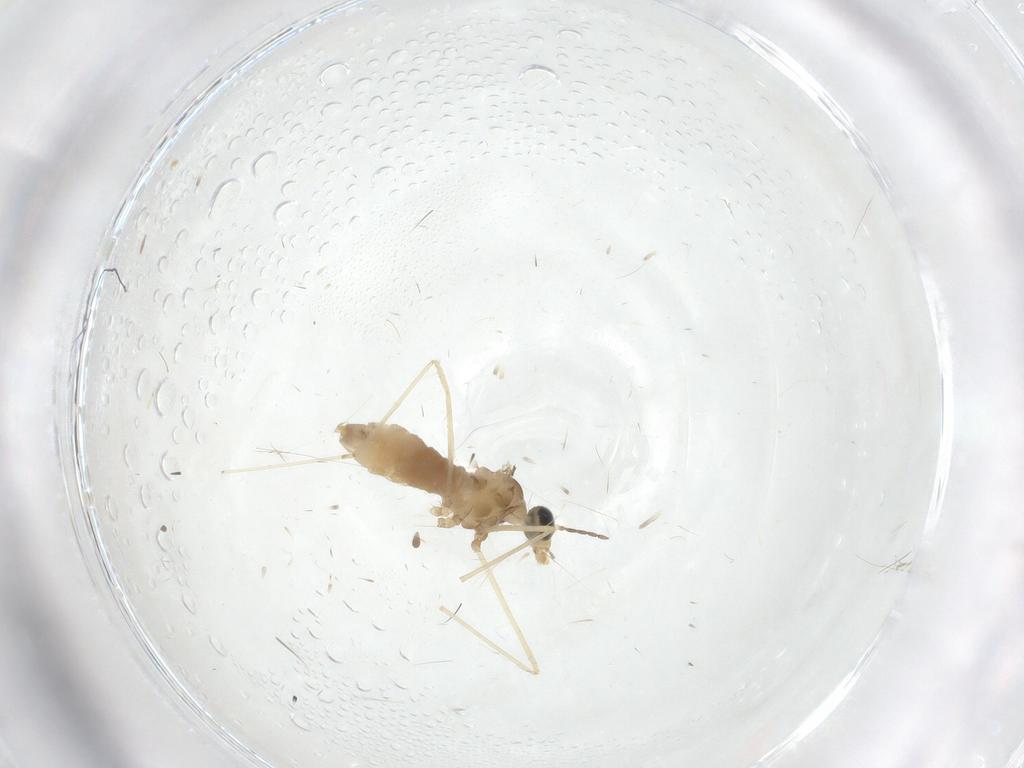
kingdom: Animalia
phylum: Arthropoda
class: Insecta
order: Diptera
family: Cecidomyiidae
